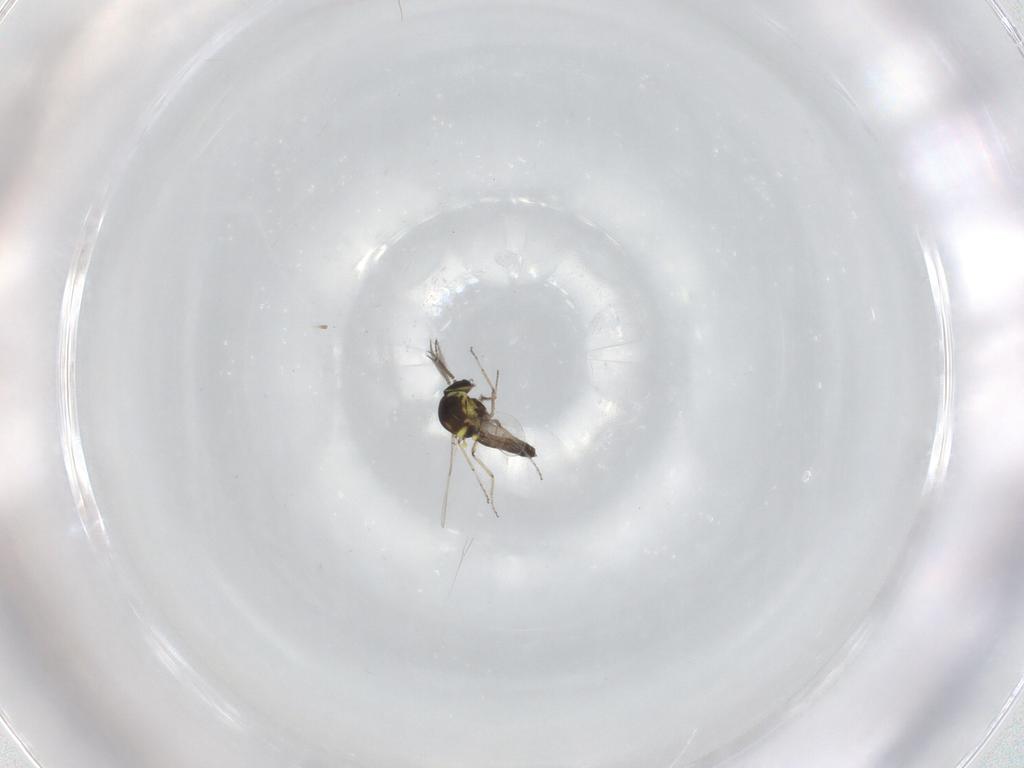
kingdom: Animalia
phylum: Arthropoda
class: Insecta
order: Diptera
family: Ceratopogonidae
